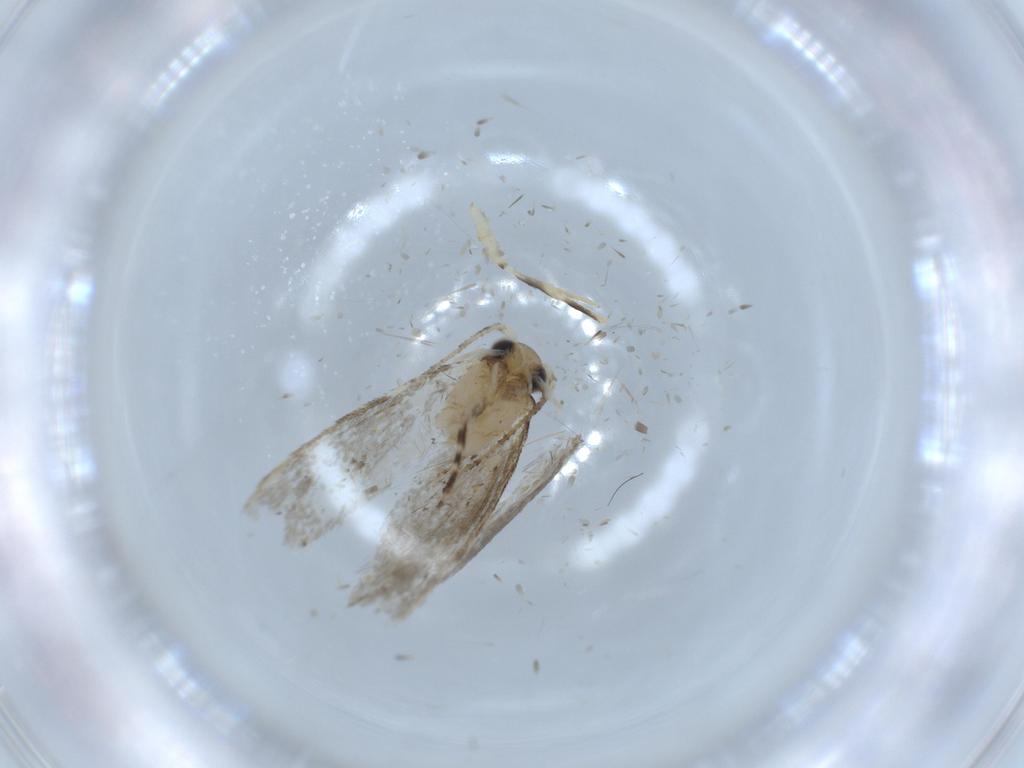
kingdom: Animalia
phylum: Arthropoda
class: Insecta
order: Lepidoptera
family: Tineidae
